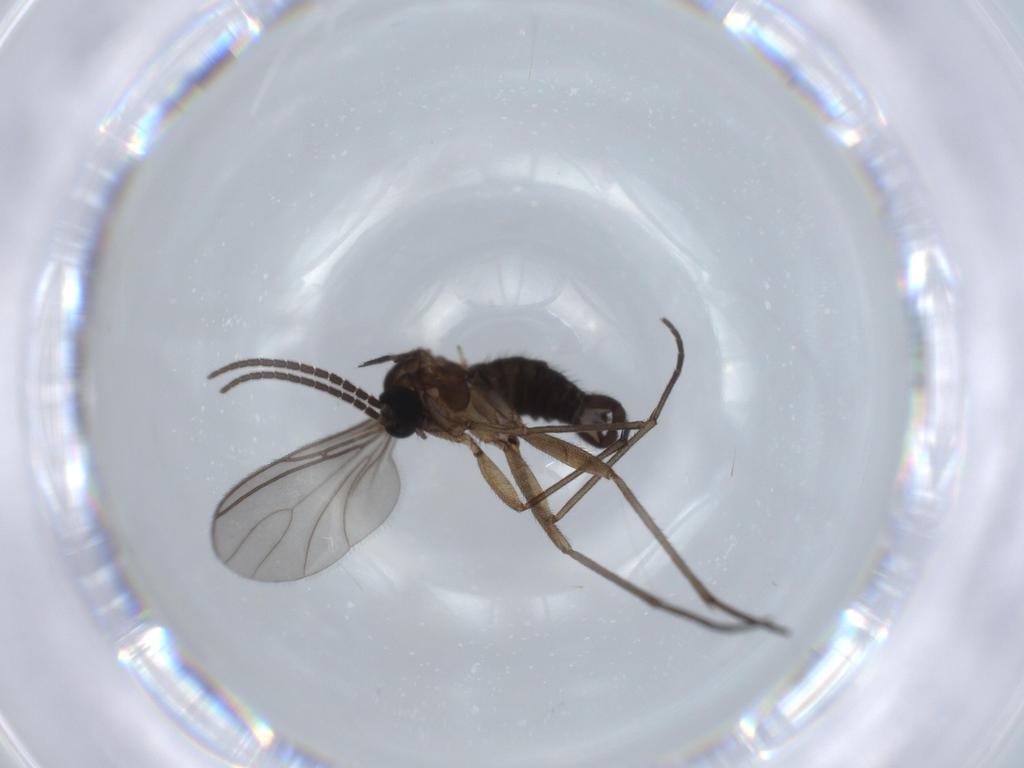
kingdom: Animalia
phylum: Arthropoda
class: Insecta
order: Diptera
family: Sciaridae
